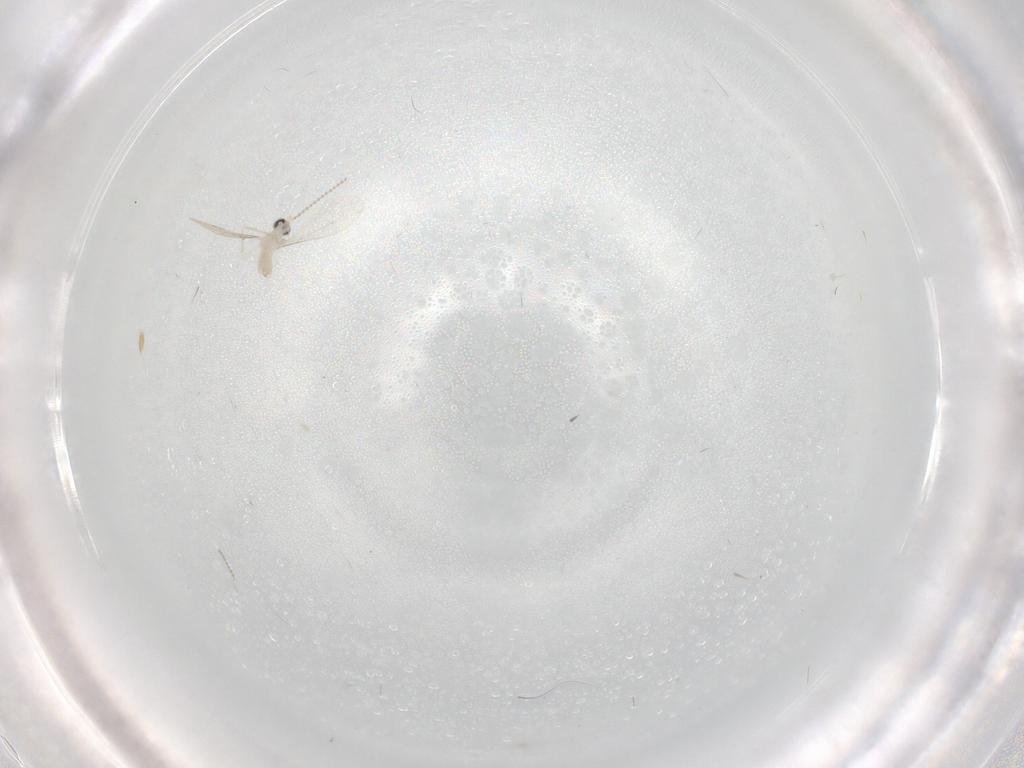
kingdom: Animalia
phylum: Arthropoda
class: Insecta
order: Diptera
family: Cecidomyiidae
